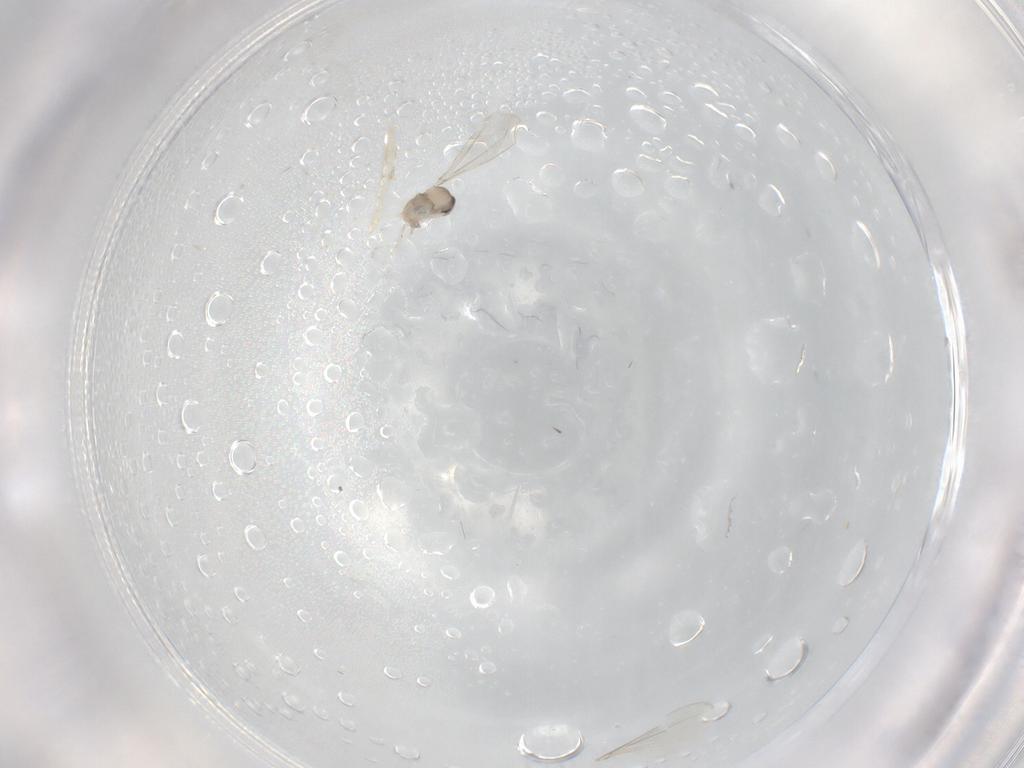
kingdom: Animalia
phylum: Arthropoda
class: Insecta
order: Diptera
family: Cecidomyiidae
